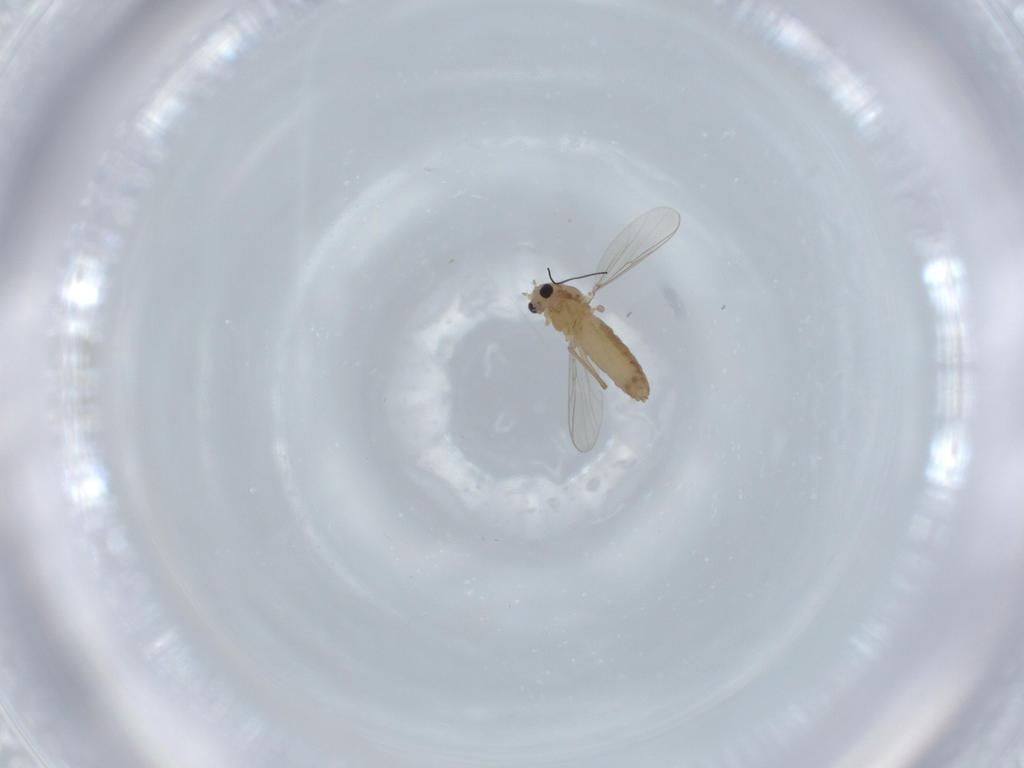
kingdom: Animalia
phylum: Arthropoda
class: Insecta
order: Diptera
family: Chironomidae
